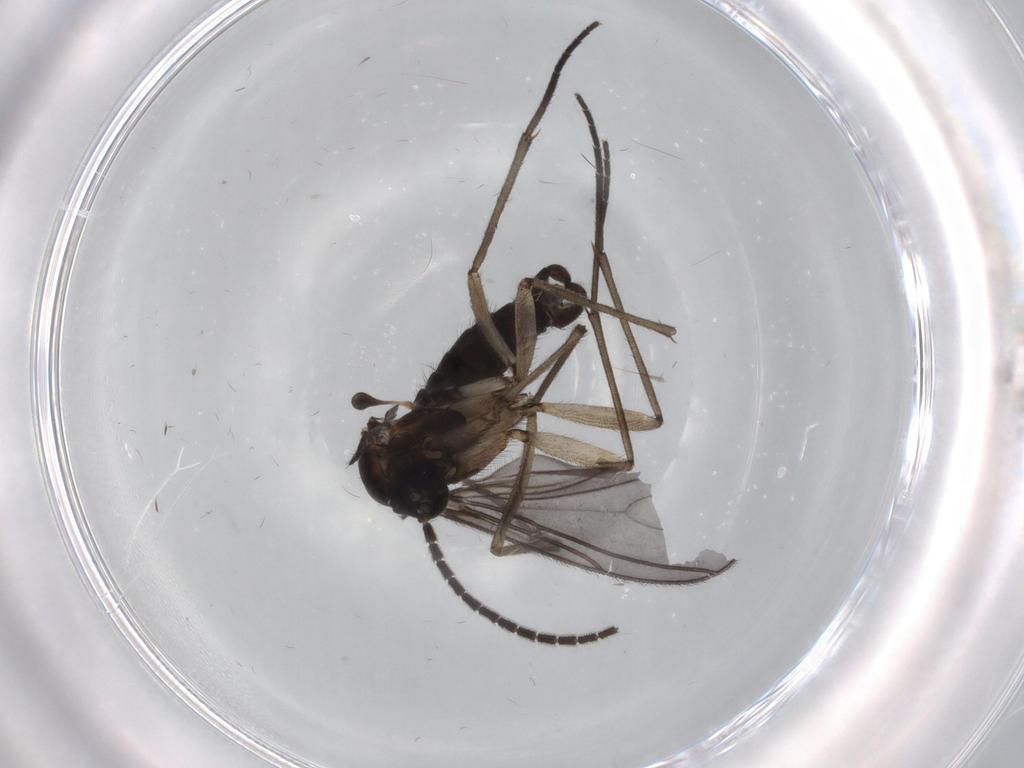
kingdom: Animalia
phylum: Arthropoda
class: Insecta
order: Diptera
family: Sciaridae
